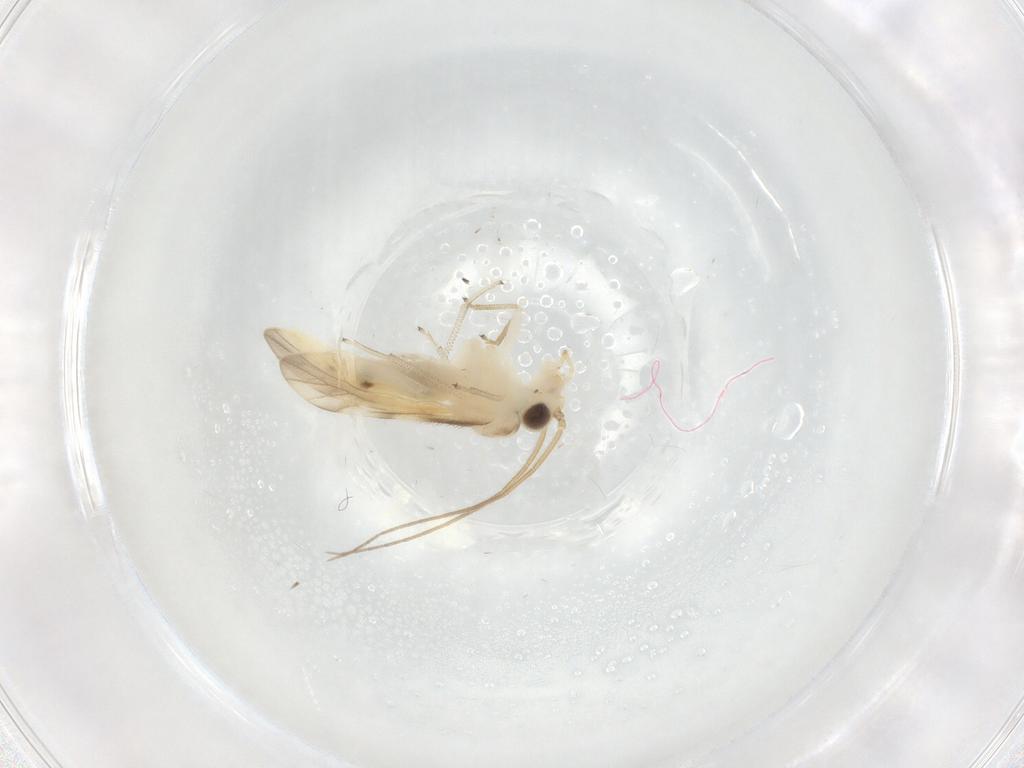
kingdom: Animalia
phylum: Arthropoda
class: Insecta
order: Psocodea
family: Caeciliusidae
